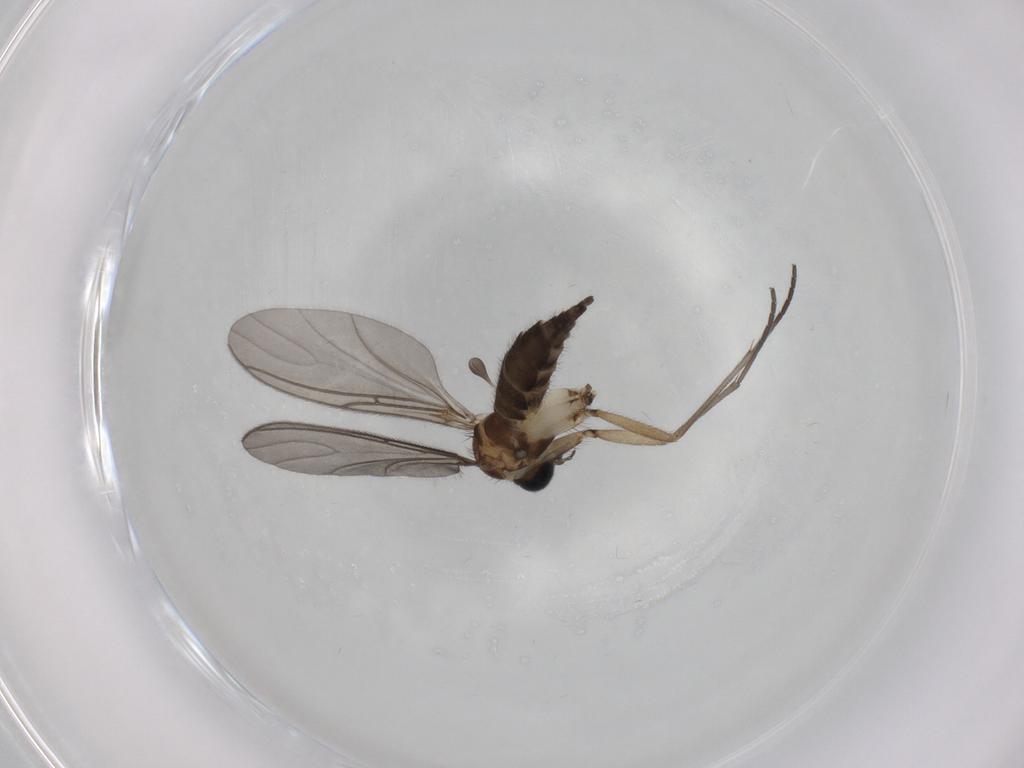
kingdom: Animalia
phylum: Arthropoda
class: Insecta
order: Diptera
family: Sciaridae
